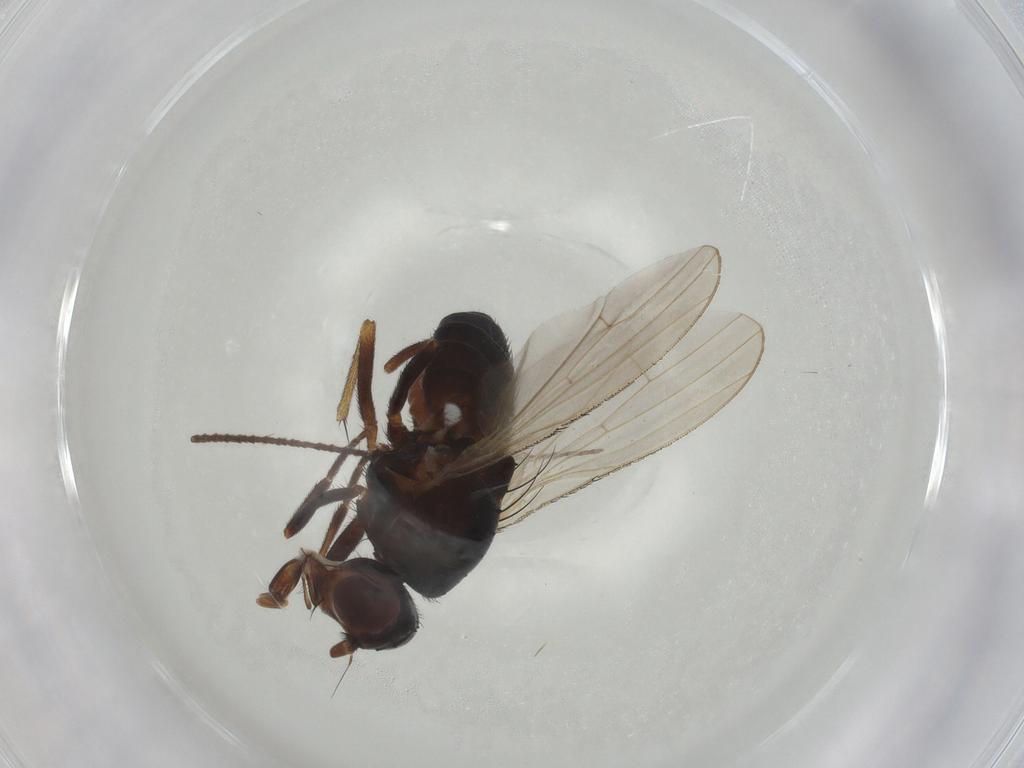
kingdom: Animalia
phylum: Arthropoda
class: Insecta
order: Diptera
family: Heleomyzidae
